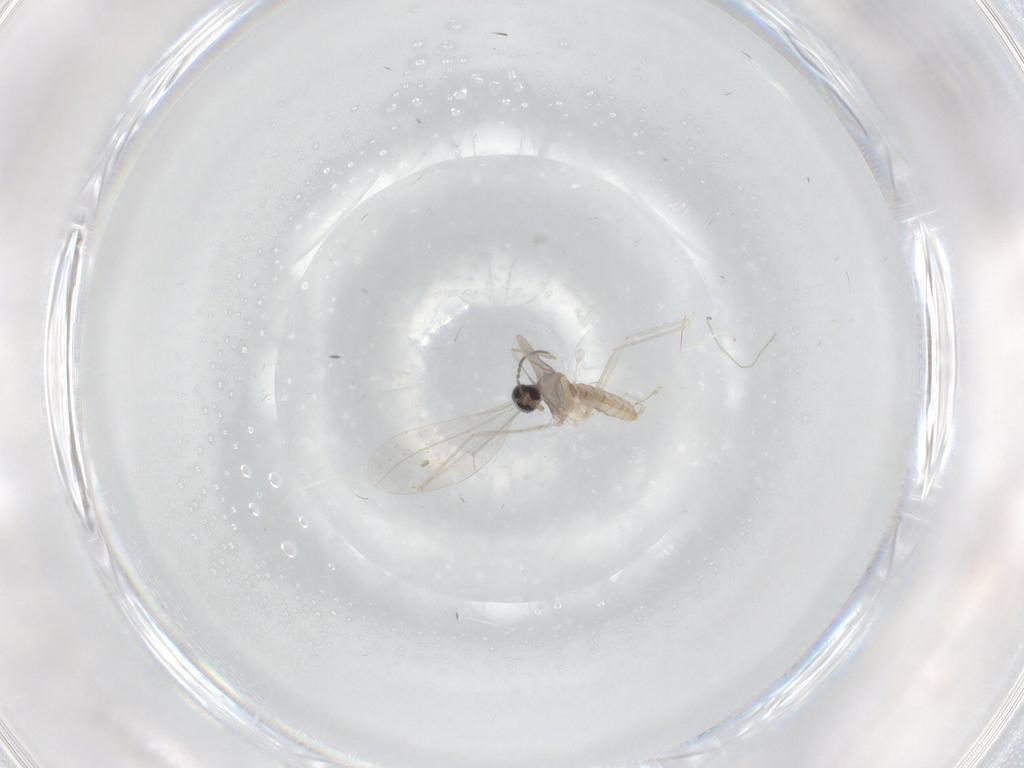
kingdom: Animalia
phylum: Arthropoda
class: Insecta
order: Diptera
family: Cecidomyiidae
